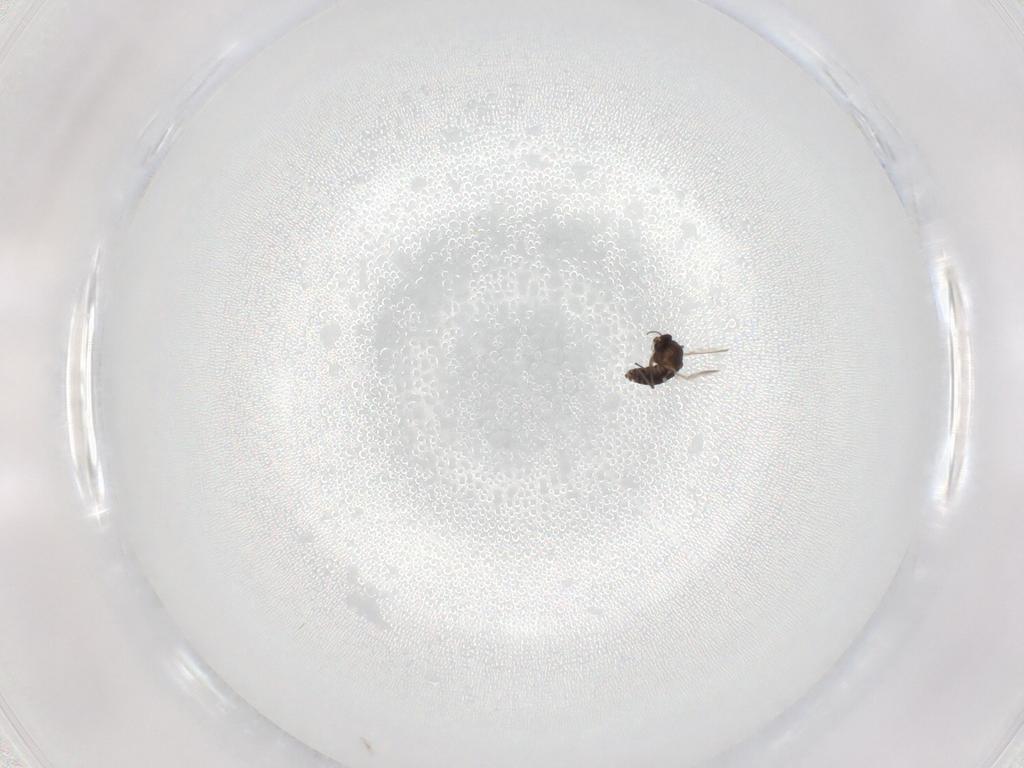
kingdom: Animalia
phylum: Arthropoda
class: Insecta
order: Diptera
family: Chironomidae
